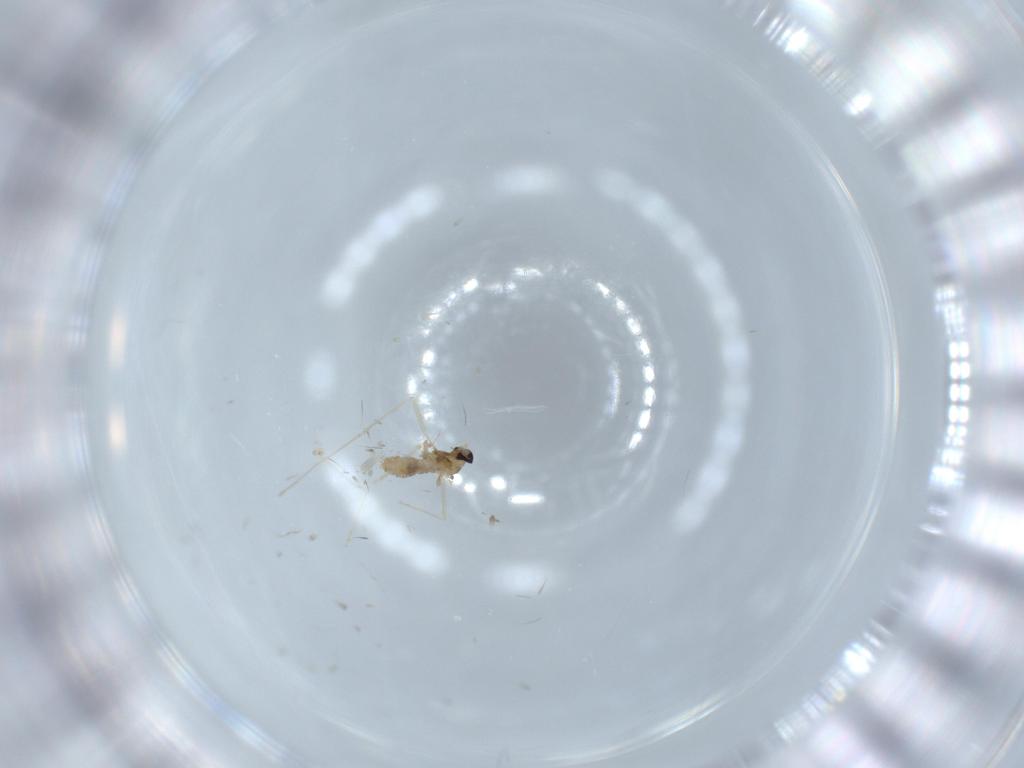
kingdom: Animalia
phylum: Arthropoda
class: Insecta
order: Diptera
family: Cecidomyiidae
